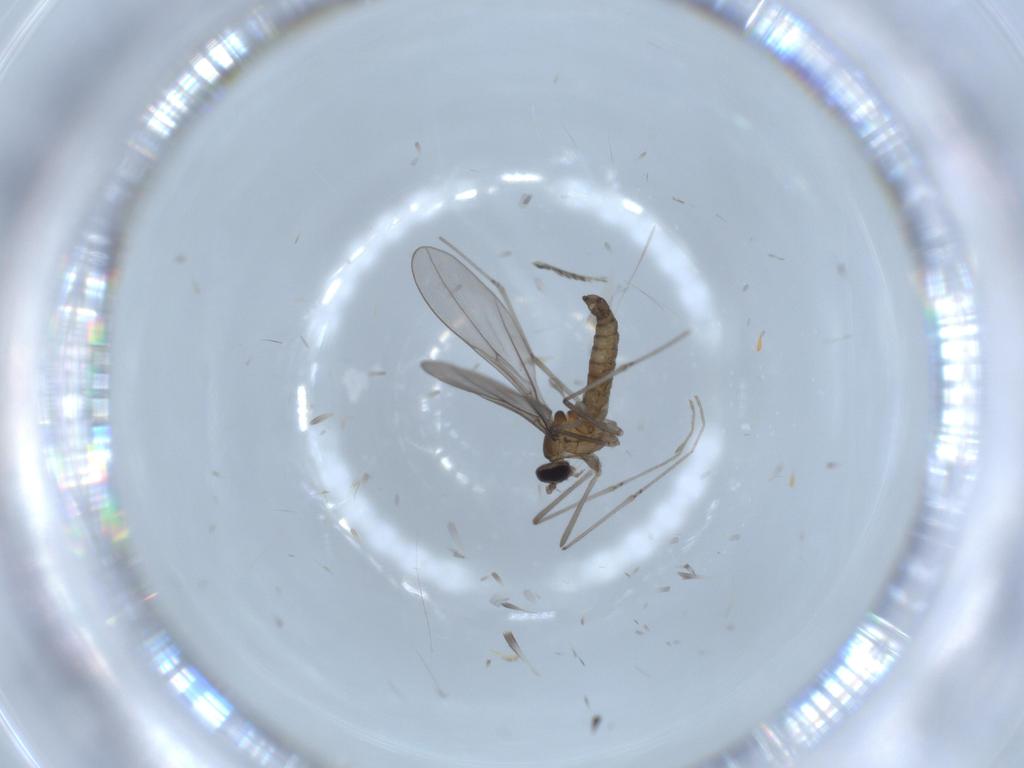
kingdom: Animalia
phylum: Arthropoda
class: Insecta
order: Diptera
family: Cecidomyiidae
